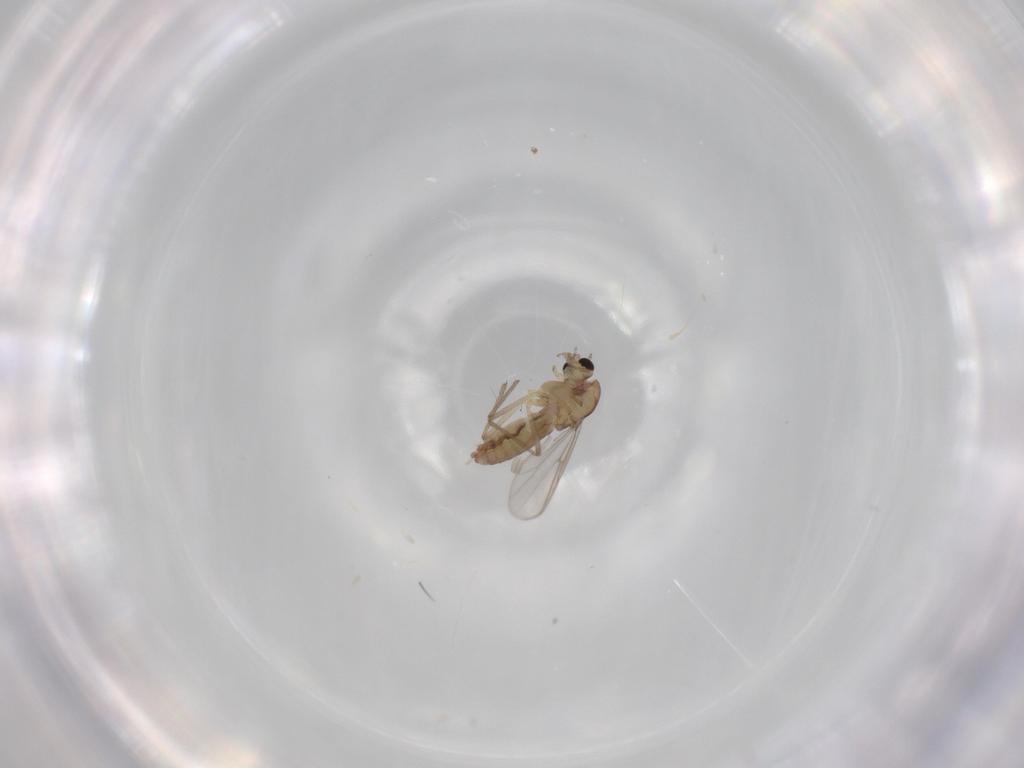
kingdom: Animalia
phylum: Arthropoda
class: Insecta
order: Diptera
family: Chironomidae
